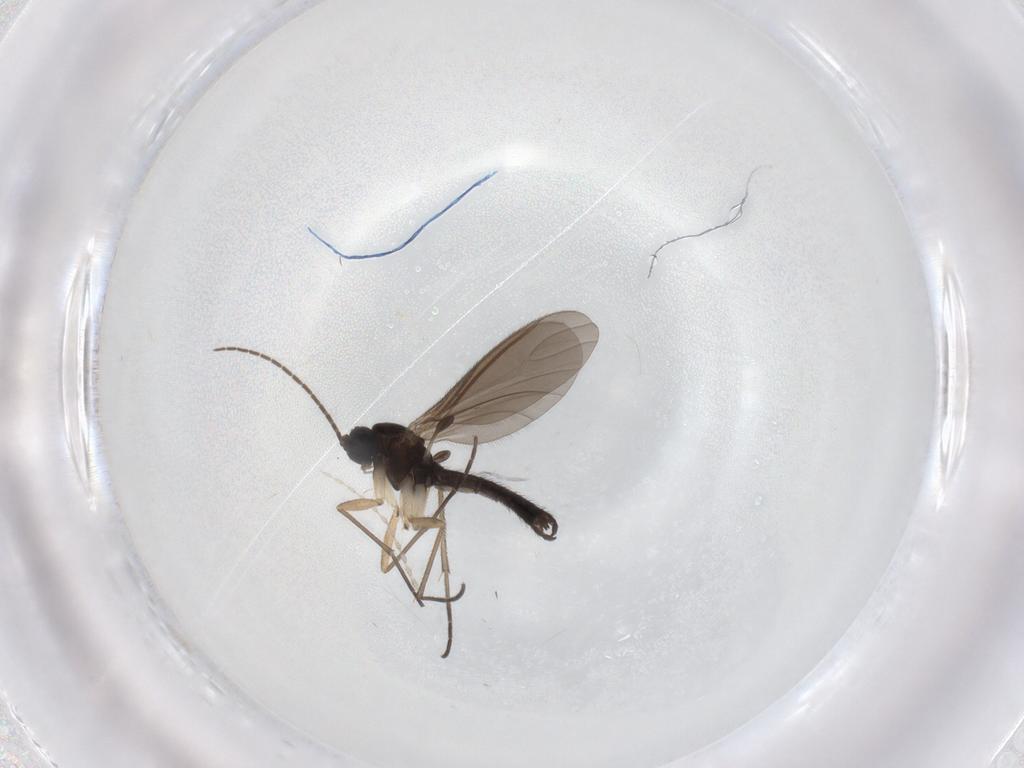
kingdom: Animalia
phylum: Arthropoda
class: Insecta
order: Diptera
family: Sciaridae
